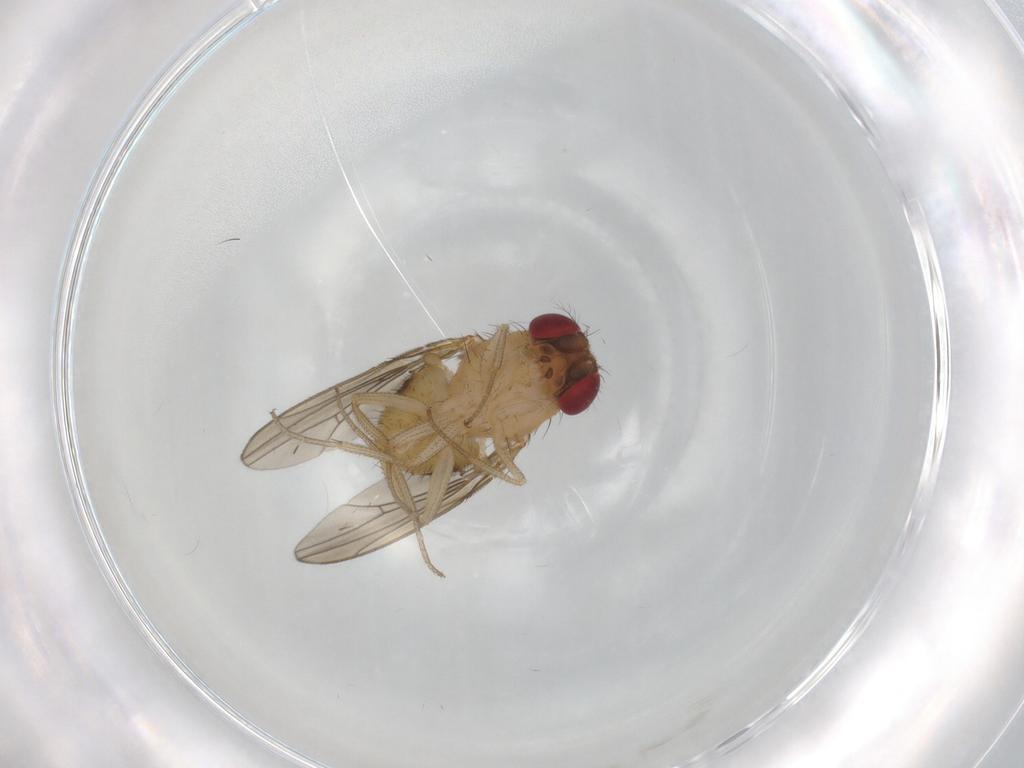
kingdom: Animalia
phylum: Arthropoda
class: Insecta
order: Diptera
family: Drosophilidae
